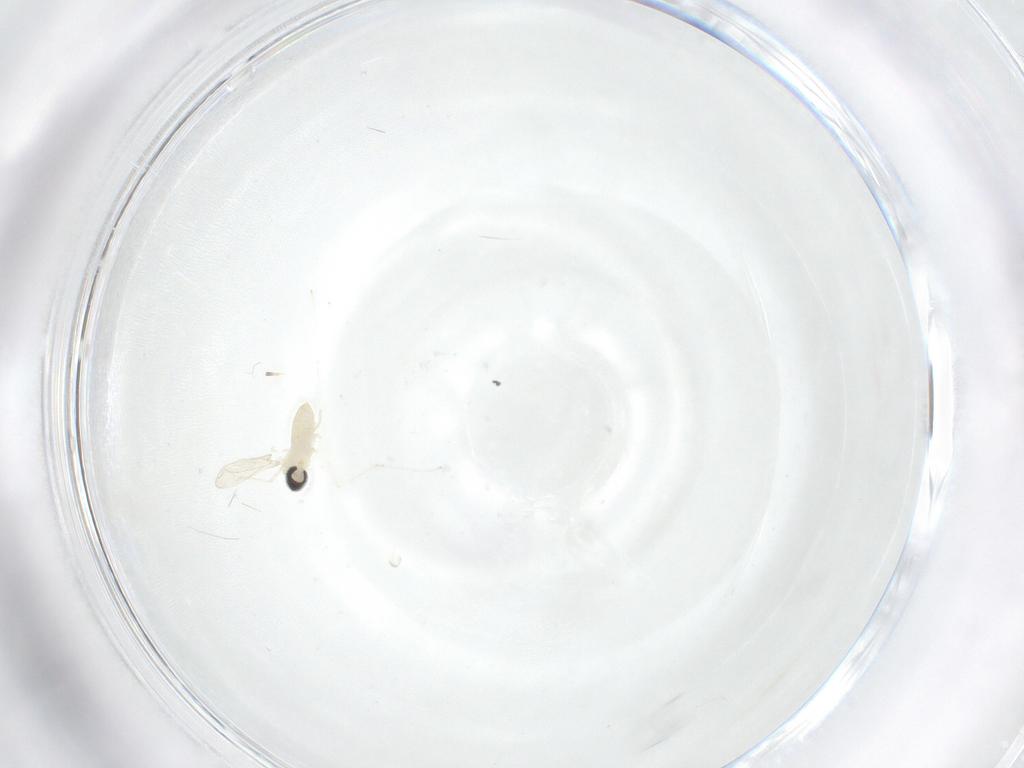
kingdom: Animalia
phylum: Arthropoda
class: Insecta
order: Diptera
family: Cecidomyiidae
